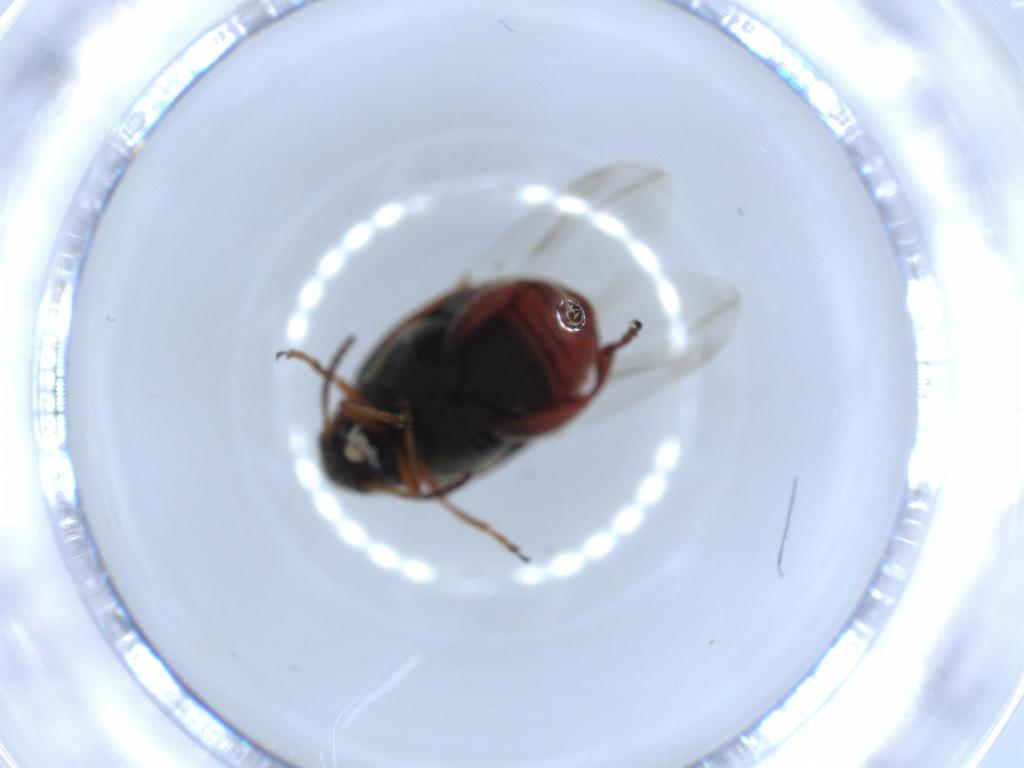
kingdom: Animalia
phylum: Arthropoda
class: Insecta
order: Coleoptera
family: Chrysomelidae
